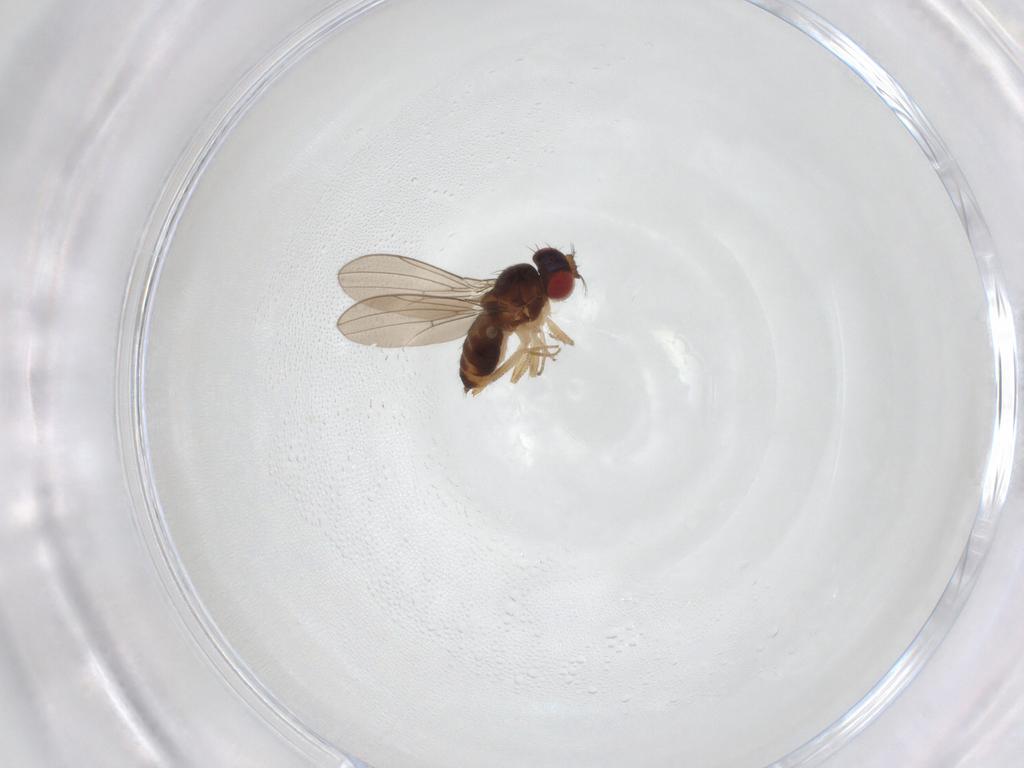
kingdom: Animalia
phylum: Arthropoda
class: Insecta
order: Diptera
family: Drosophilidae
